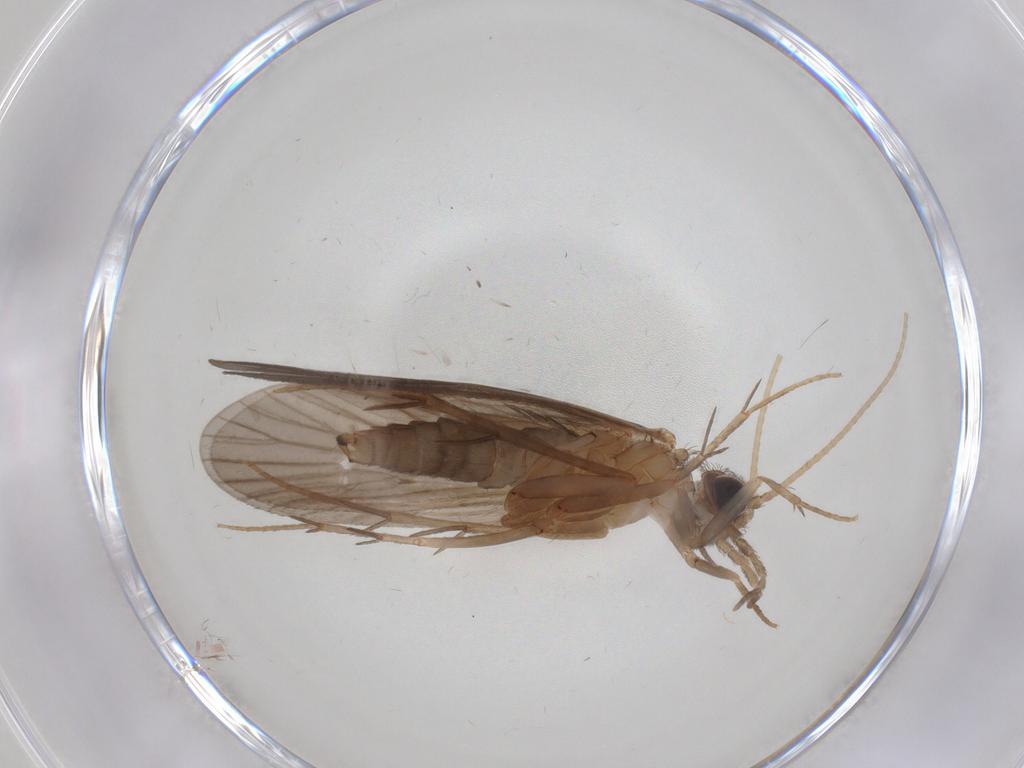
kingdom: Animalia
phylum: Arthropoda
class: Insecta
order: Trichoptera
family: Philopotamidae
